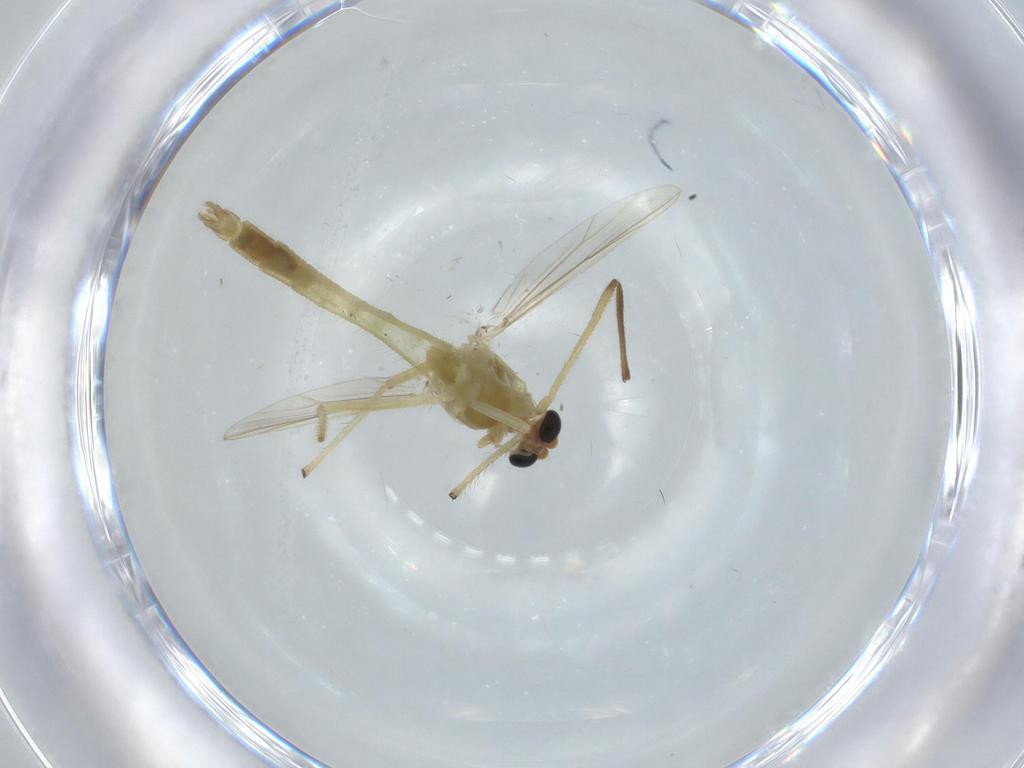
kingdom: Animalia
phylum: Arthropoda
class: Insecta
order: Diptera
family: Chironomidae
